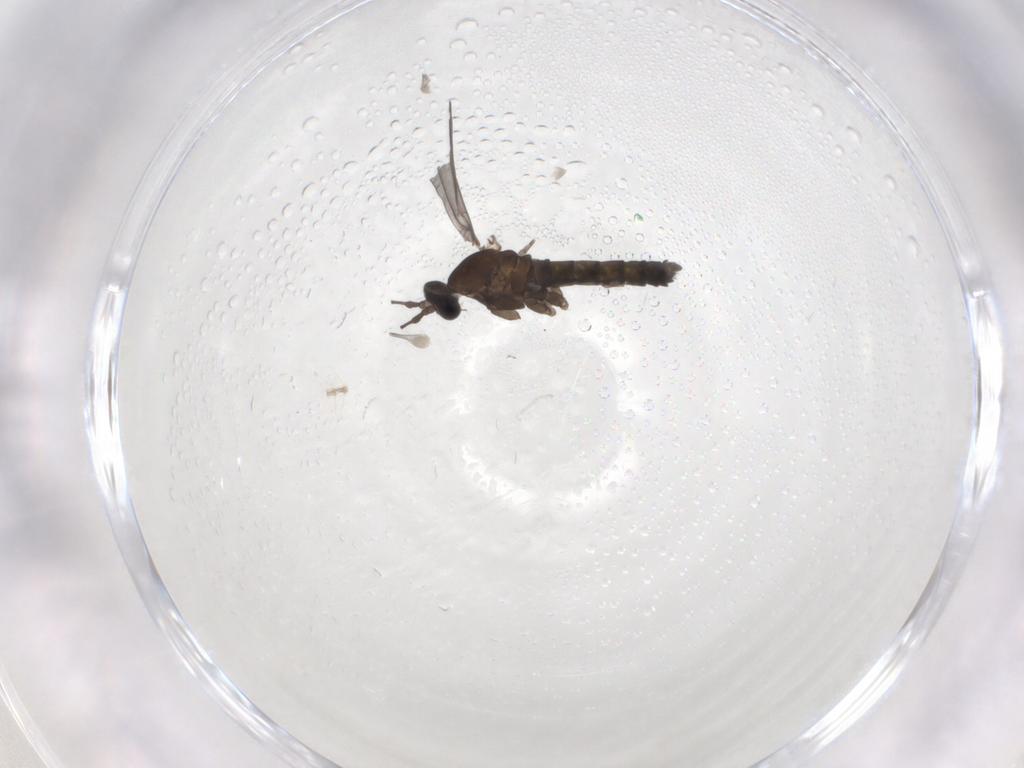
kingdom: Animalia
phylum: Arthropoda
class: Insecta
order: Diptera
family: Cecidomyiidae
